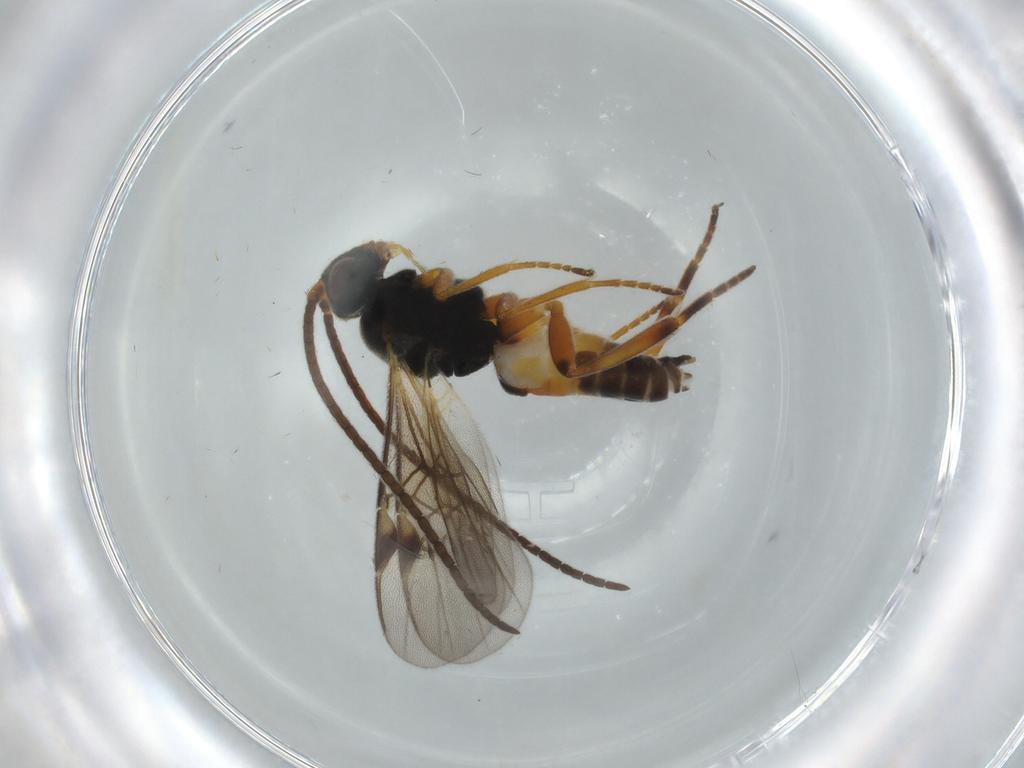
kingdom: Animalia
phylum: Arthropoda
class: Insecta
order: Hymenoptera
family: Braconidae
